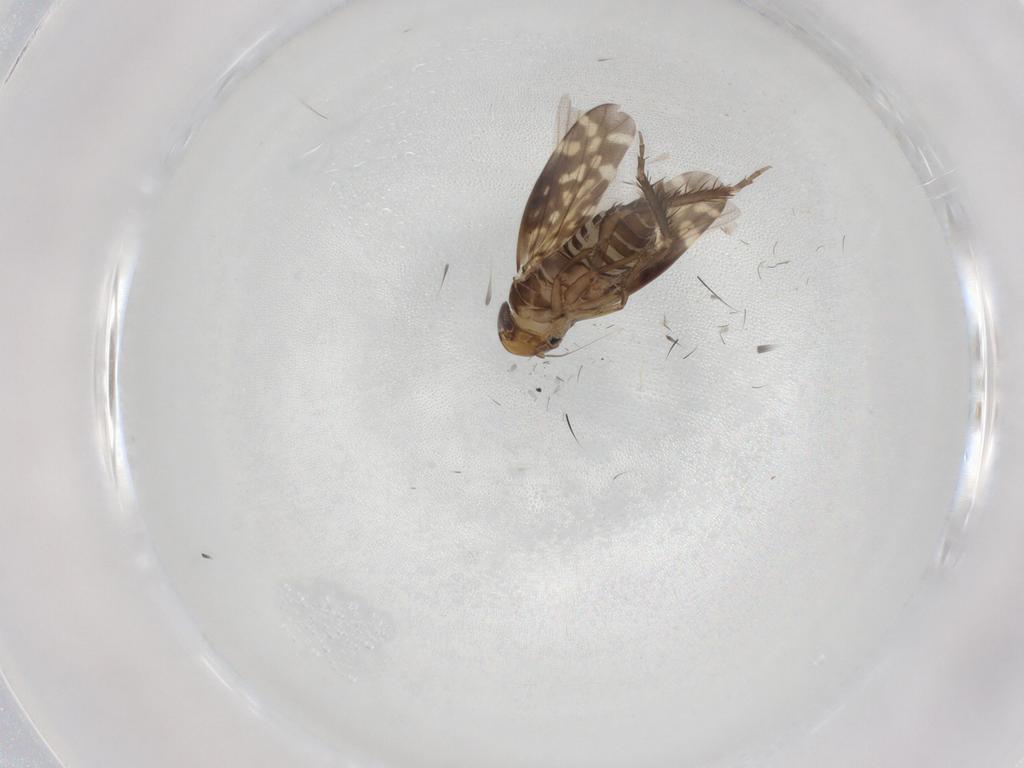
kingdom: Animalia
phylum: Arthropoda
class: Insecta
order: Hemiptera
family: Cicadellidae
